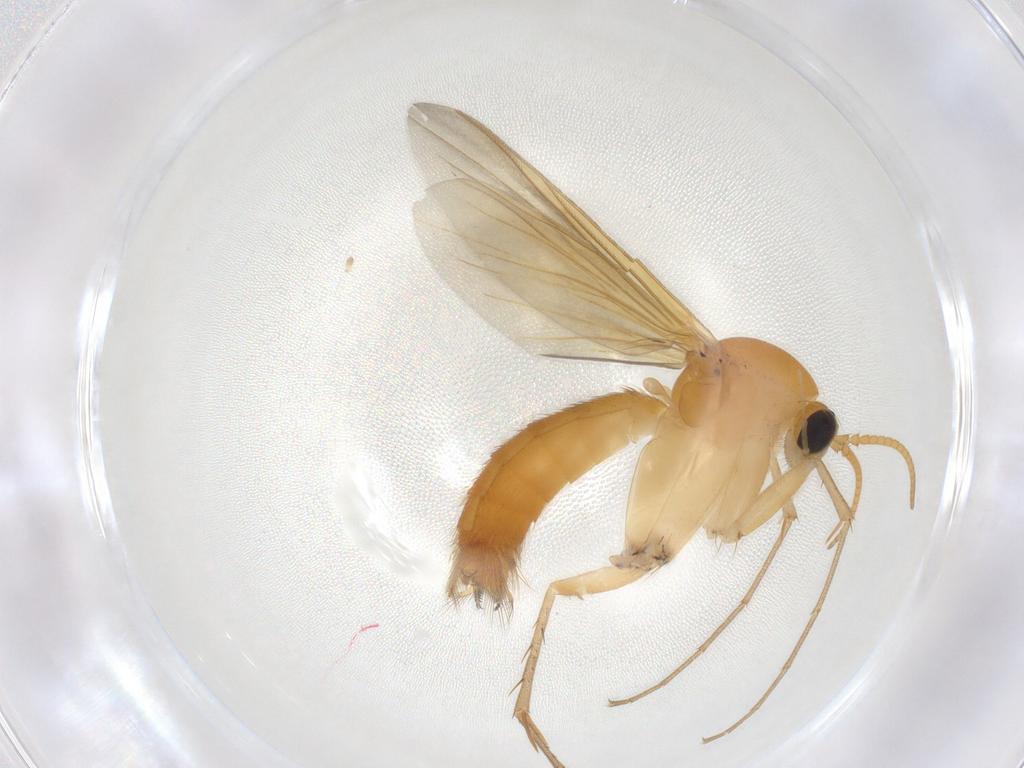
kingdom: Animalia
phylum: Arthropoda
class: Insecta
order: Diptera
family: Mycetophilidae
